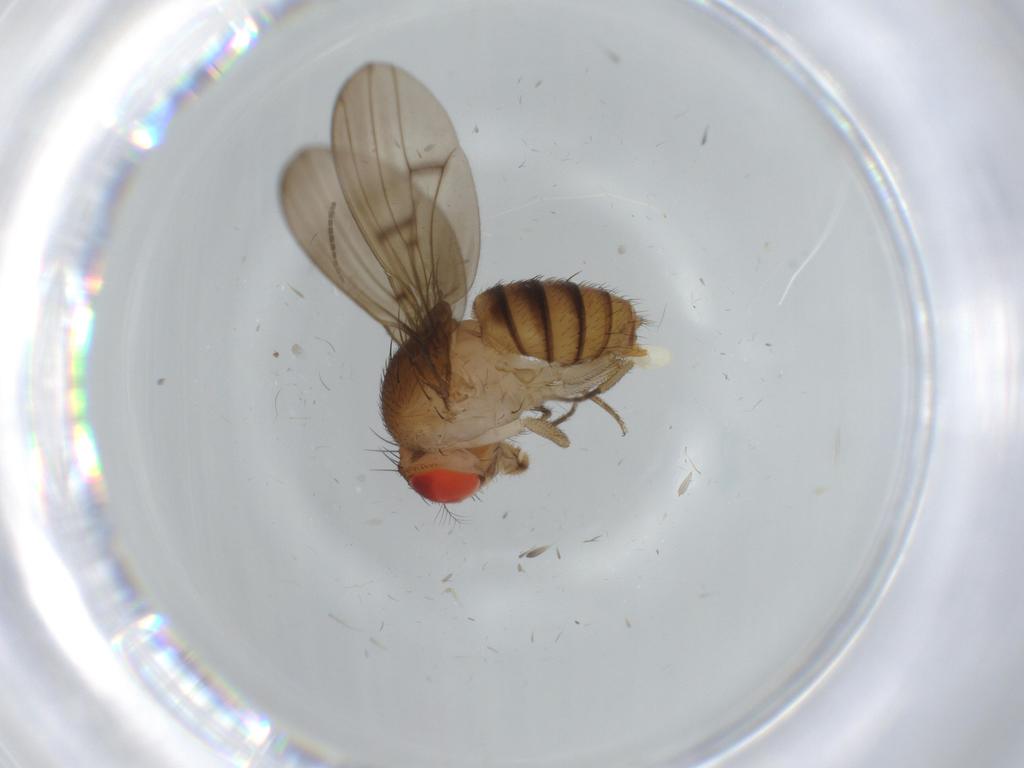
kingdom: Animalia
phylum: Arthropoda
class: Insecta
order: Diptera
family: Drosophilidae
